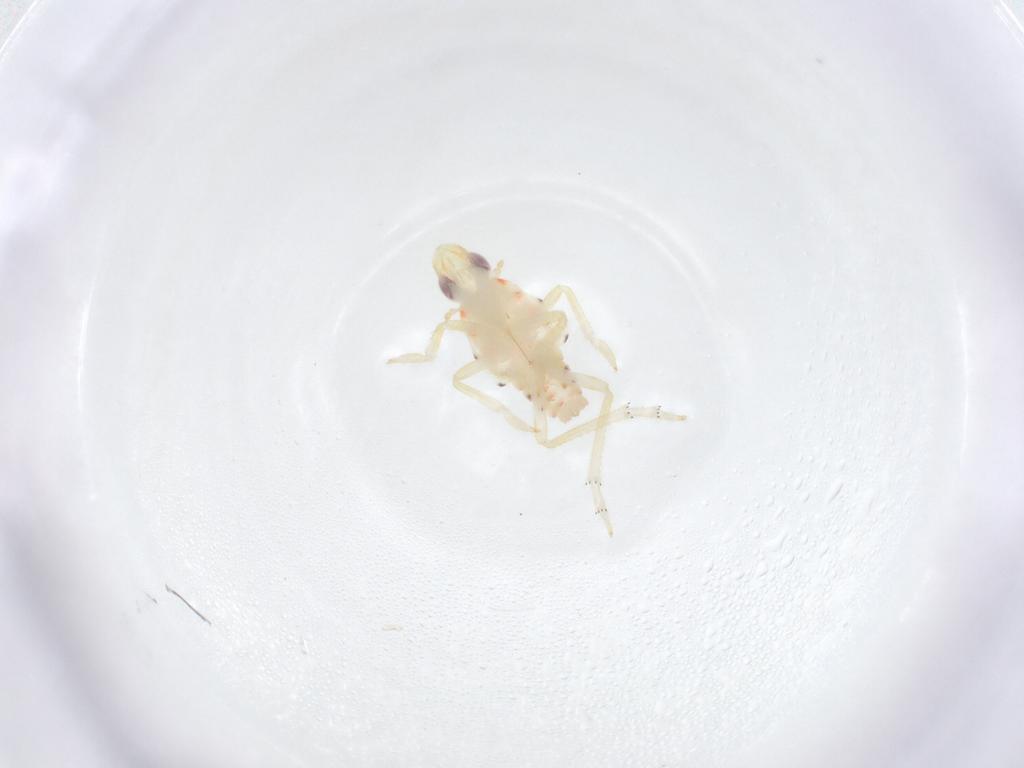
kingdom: Animalia
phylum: Arthropoda
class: Insecta
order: Hemiptera
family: Tropiduchidae
